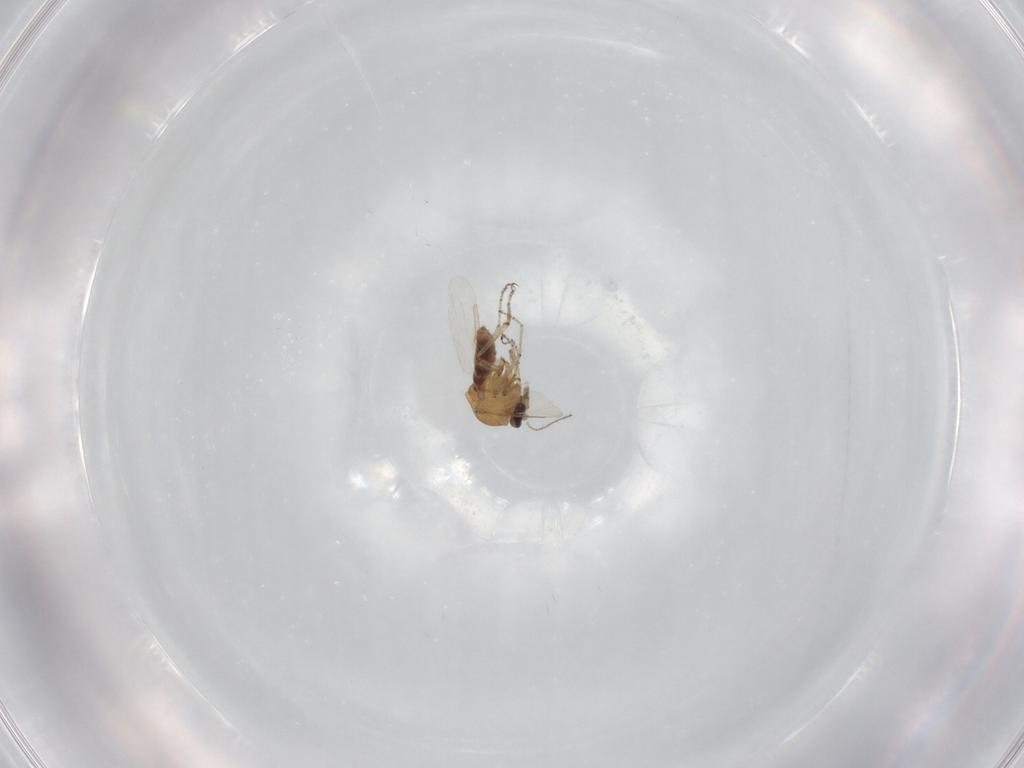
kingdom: Animalia
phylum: Arthropoda
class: Insecta
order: Diptera
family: Ceratopogonidae
